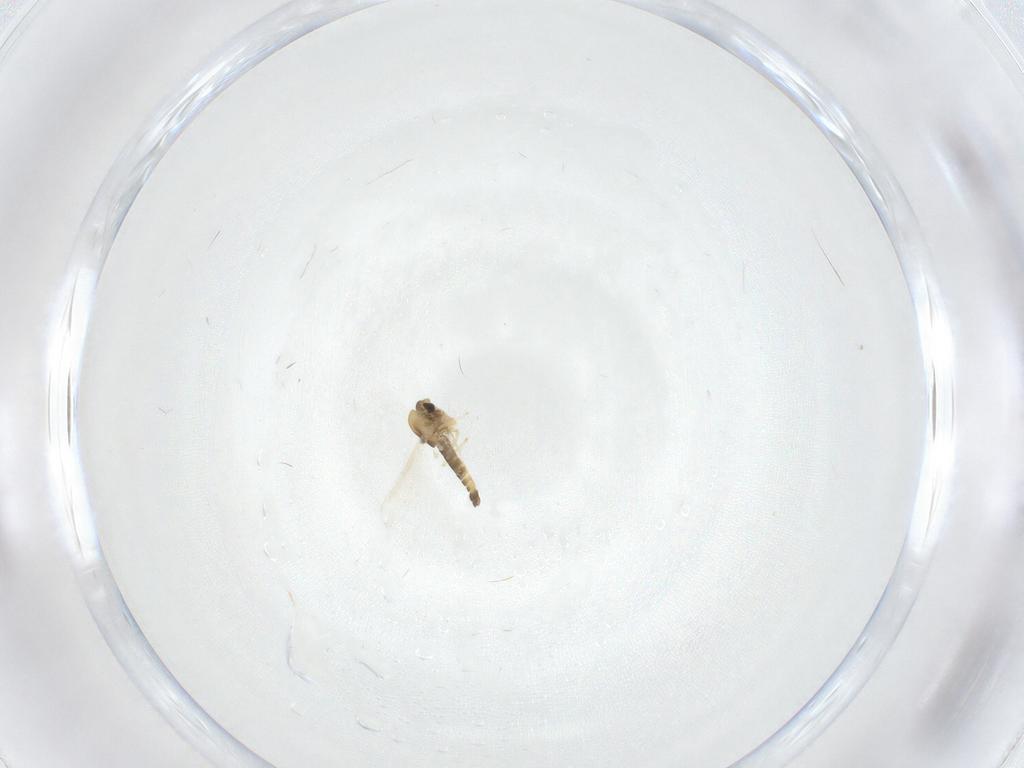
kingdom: Animalia
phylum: Arthropoda
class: Insecta
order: Diptera
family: Chironomidae
